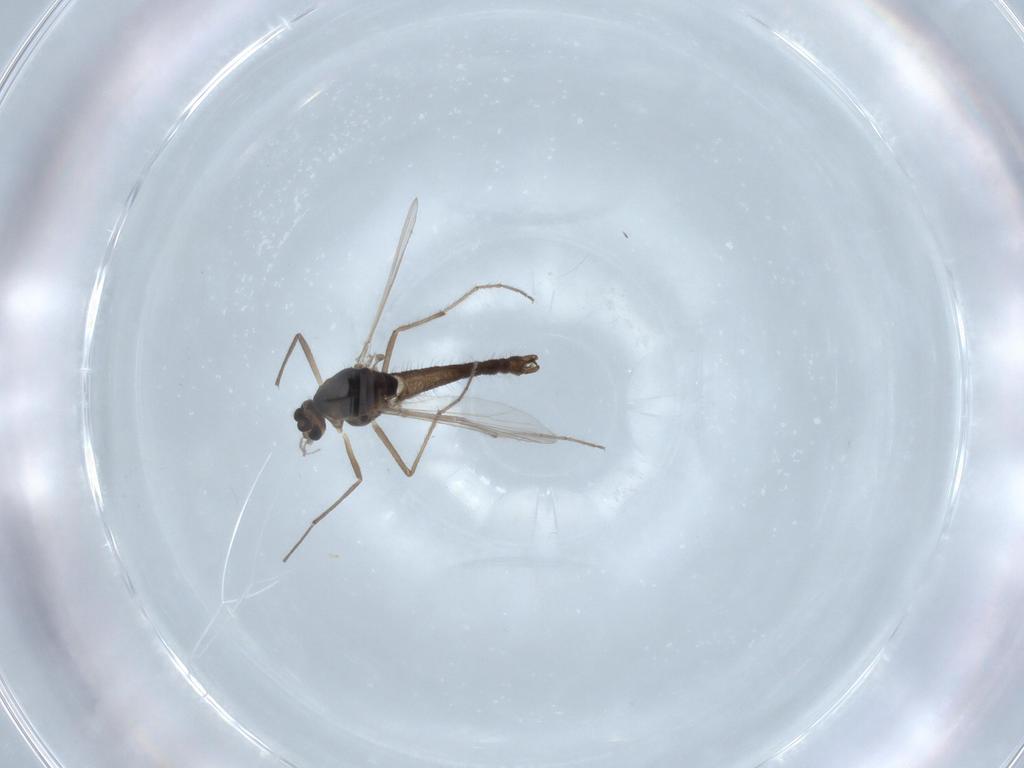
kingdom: Animalia
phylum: Arthropoda
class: Insecta
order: Diptera
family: Chironomidae
